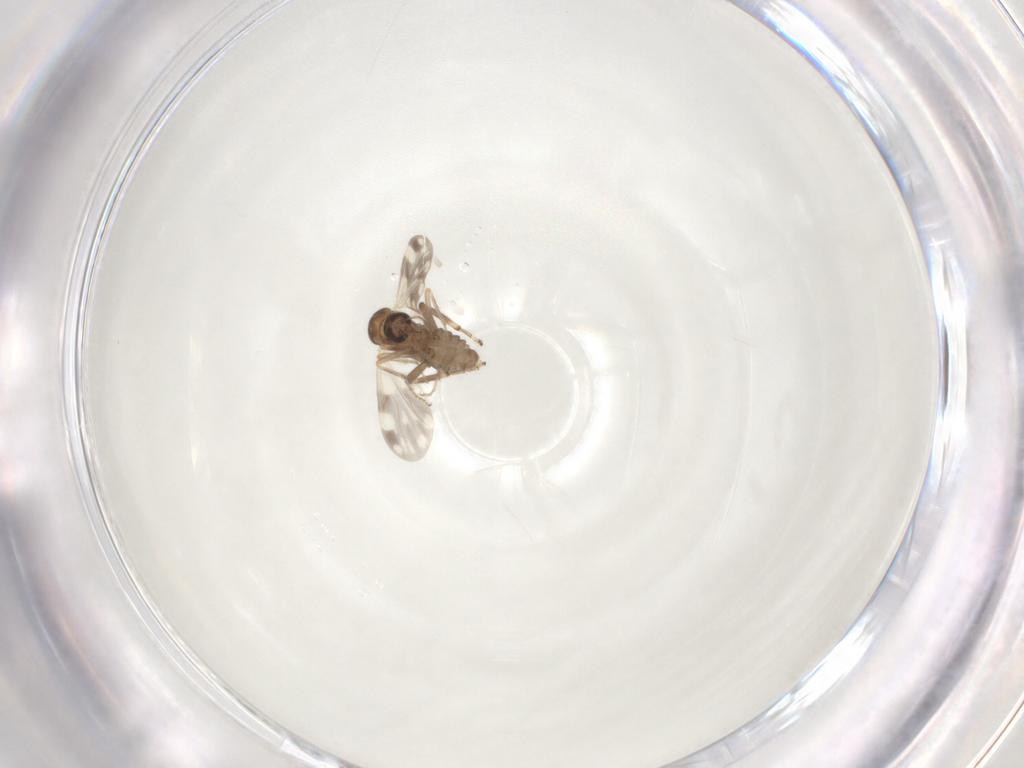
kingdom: Animalia
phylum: Arthropoda
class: Insecta
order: Diptera
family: Ceratopogonidae
